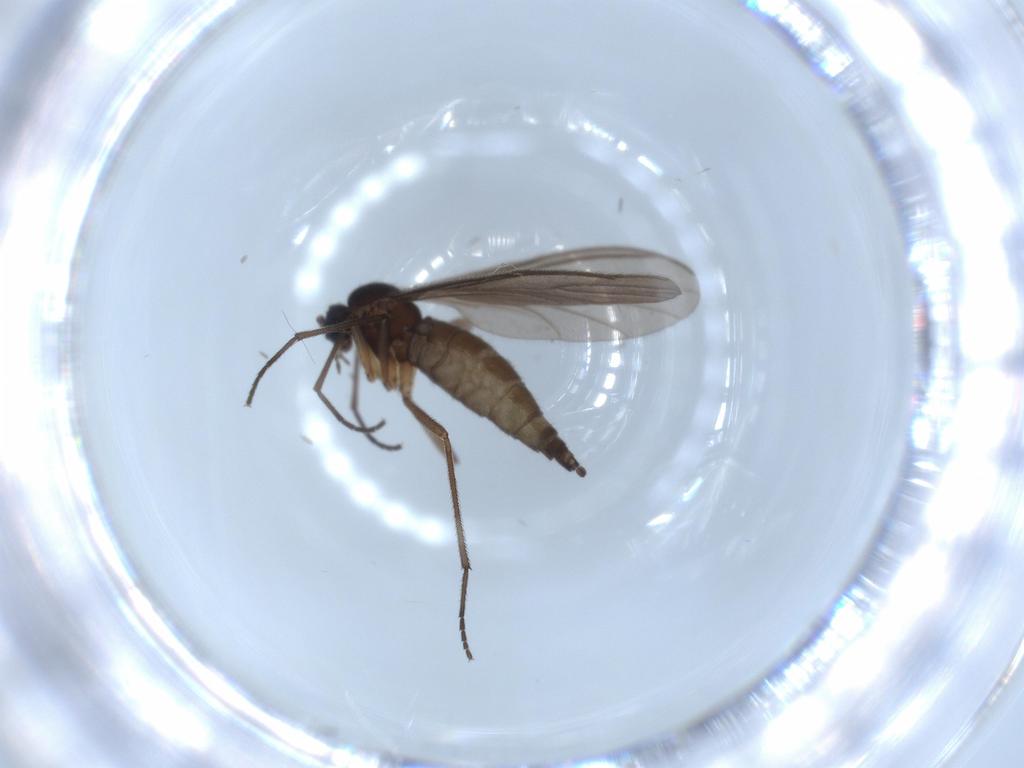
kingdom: Animalia
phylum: Arthropoda
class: Insecta
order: Diptera
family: Sciaridae
